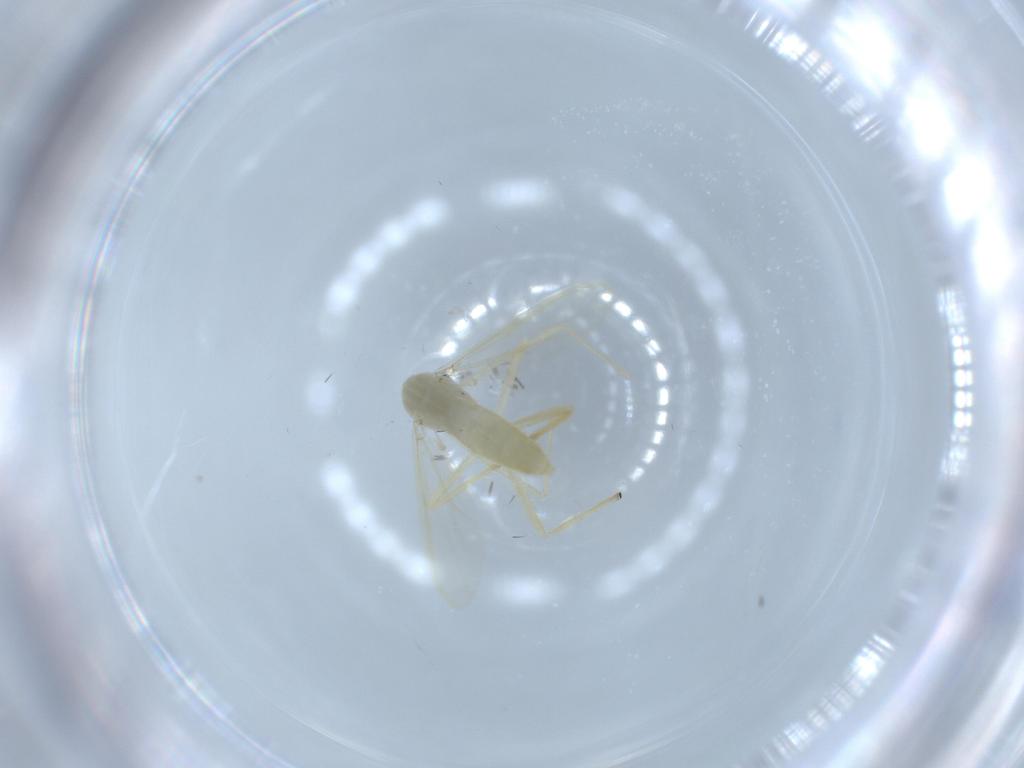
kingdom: Animalia
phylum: Arthropoda
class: Insecta
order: Diptera
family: Chironomidae
